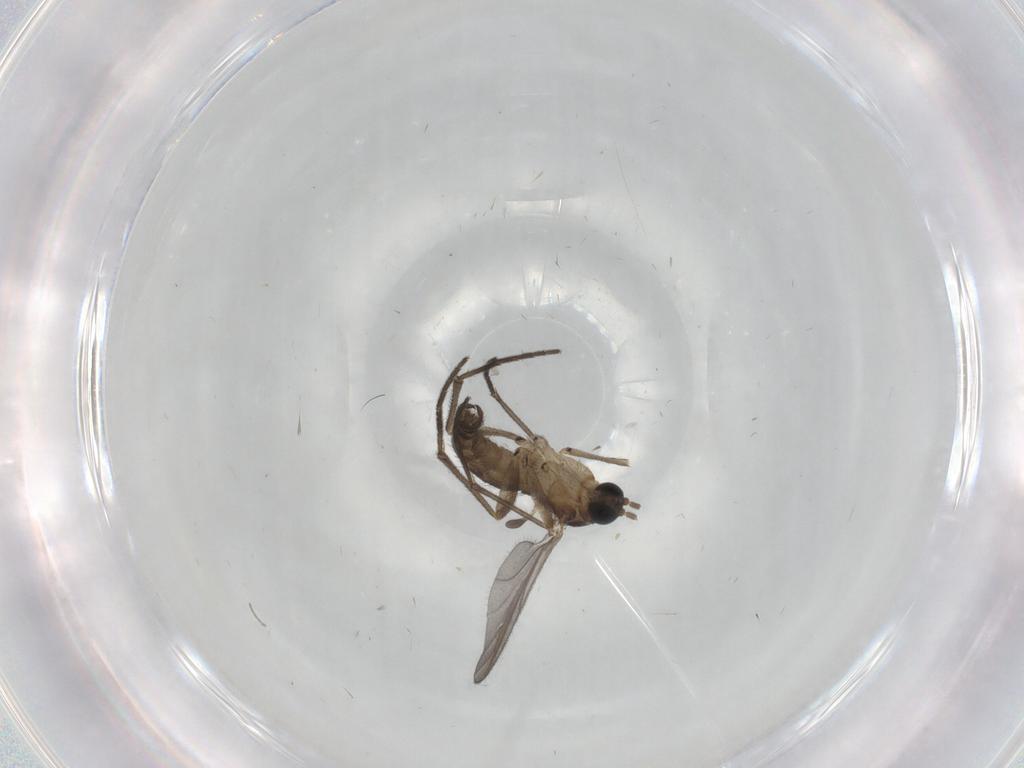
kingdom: Animalia
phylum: Arthropoda
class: Insecta
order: Diptera
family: Sciaridae
